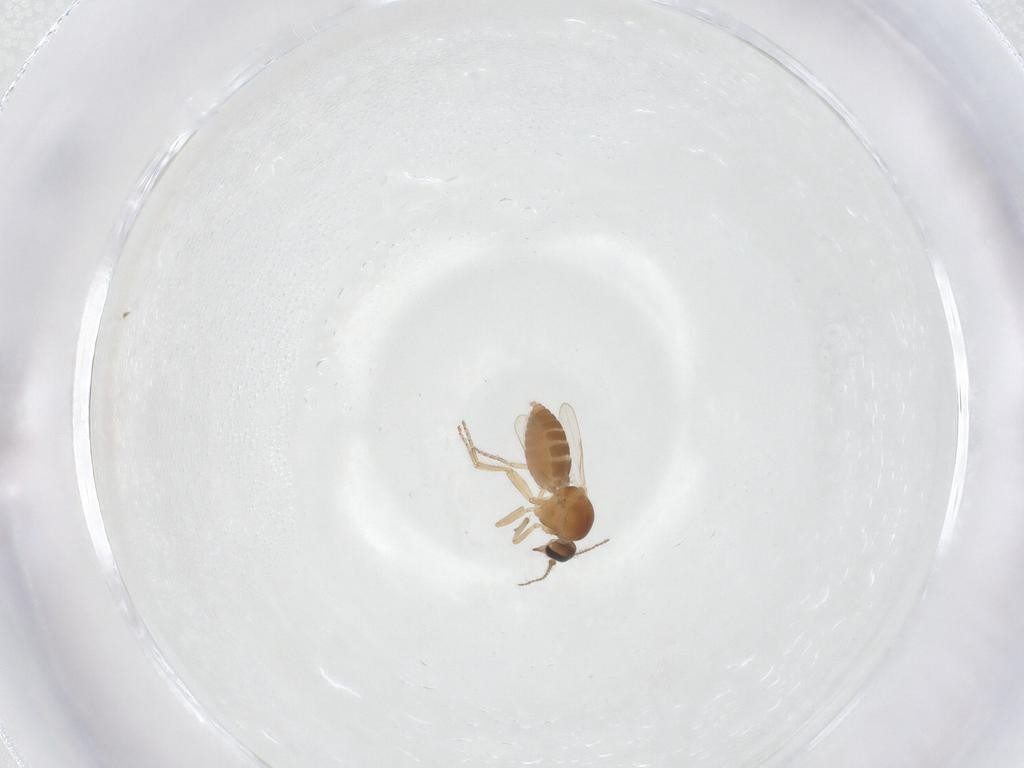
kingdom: Animalia
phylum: Arthropoda
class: Insecta
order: Diptera
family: Ceratopogonidae
